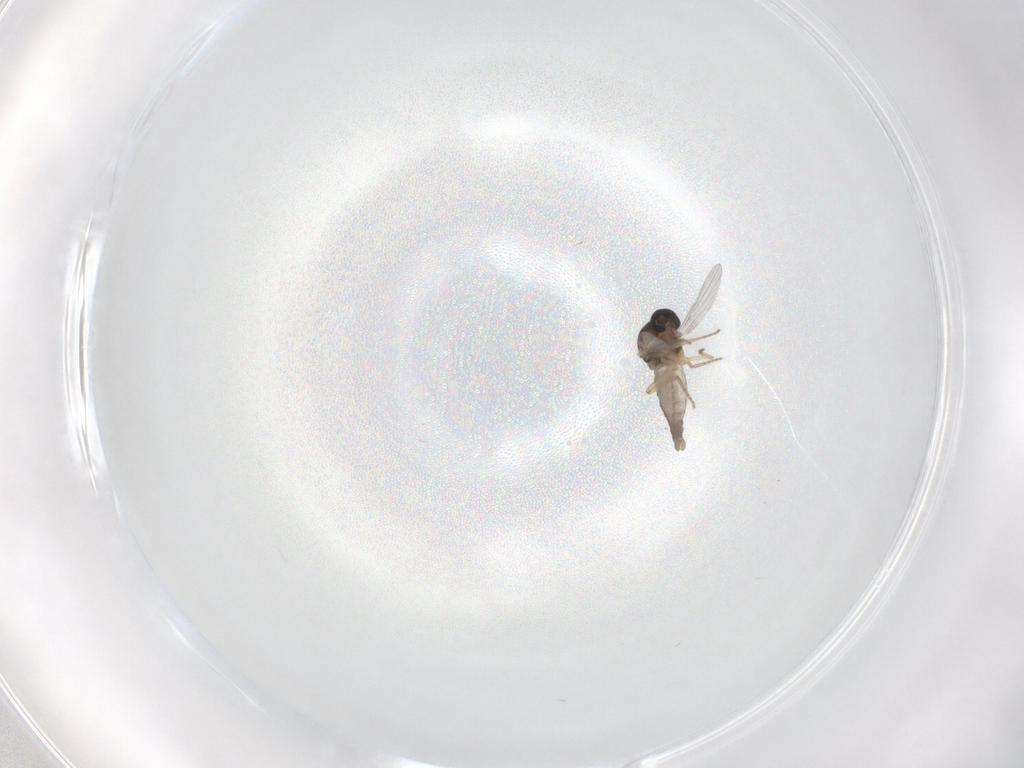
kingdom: Animalia
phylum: Arthropoda
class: Insecta
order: Diptera
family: Ceratopogonidae
